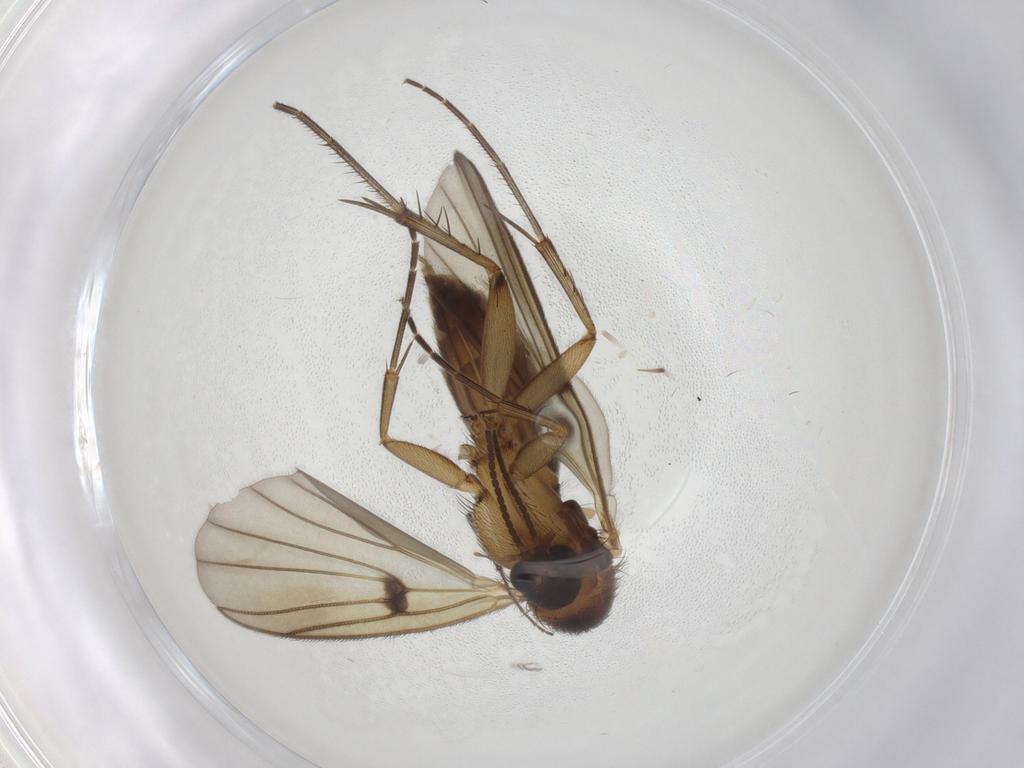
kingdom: Animalia
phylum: Arthropoda
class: Insecta
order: Diptera
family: Chironomidae
